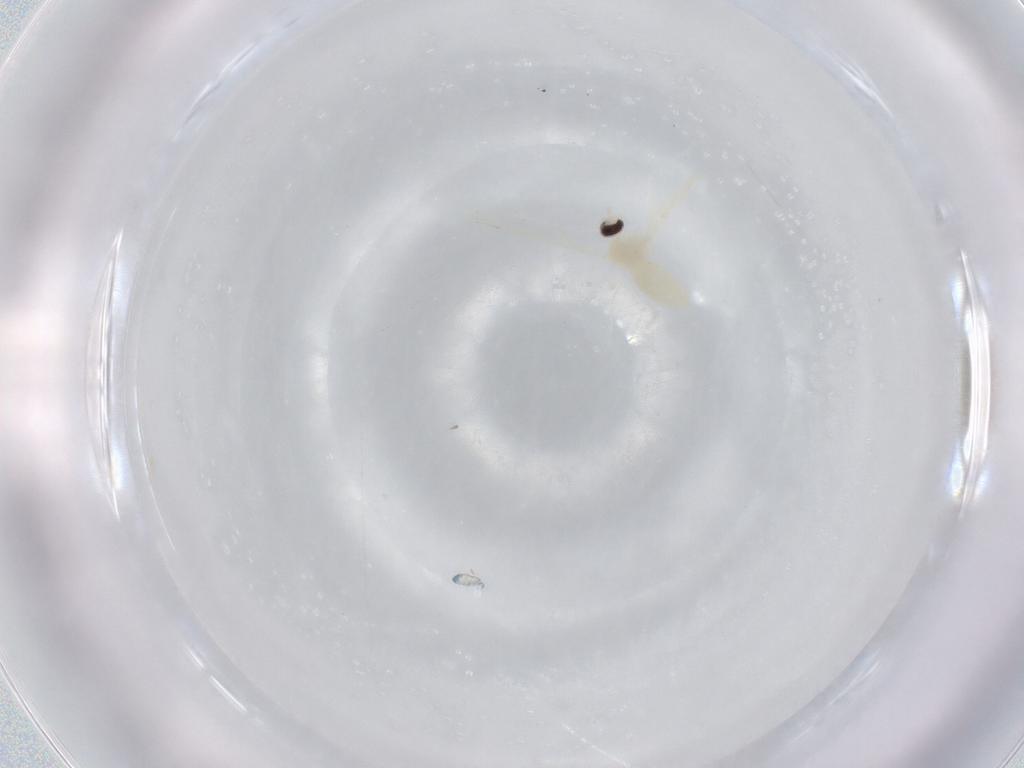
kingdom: Animalia
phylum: Arthropoda
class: Insecta
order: Diptera
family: Cecidomyiidae
